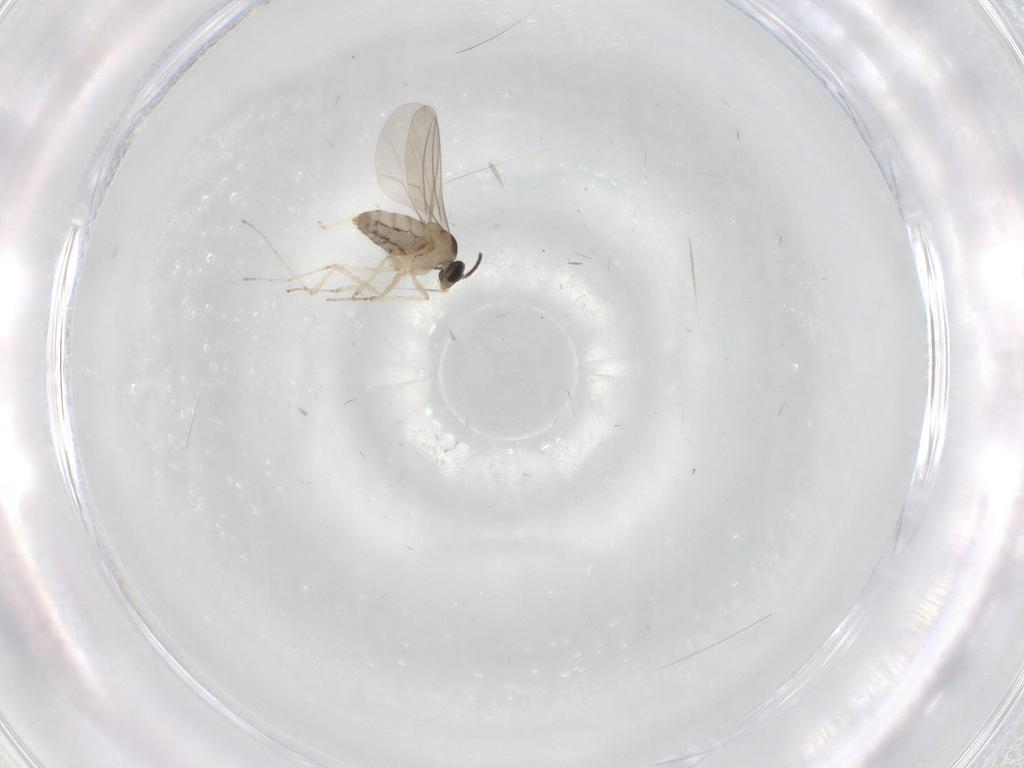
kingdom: Animalia
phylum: Arthropoda
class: Insecta
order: Diptera
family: Cecidomyiidae
